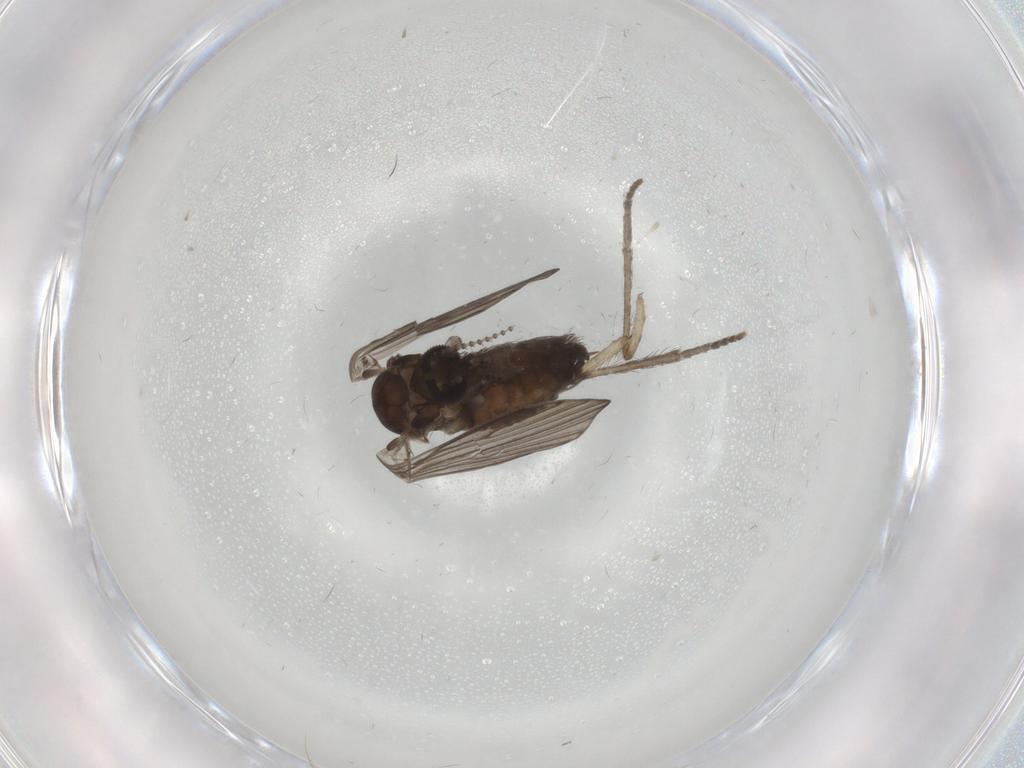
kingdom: Animalia
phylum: Arthropoda
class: Insecta
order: Diptera
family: Psychodidae
